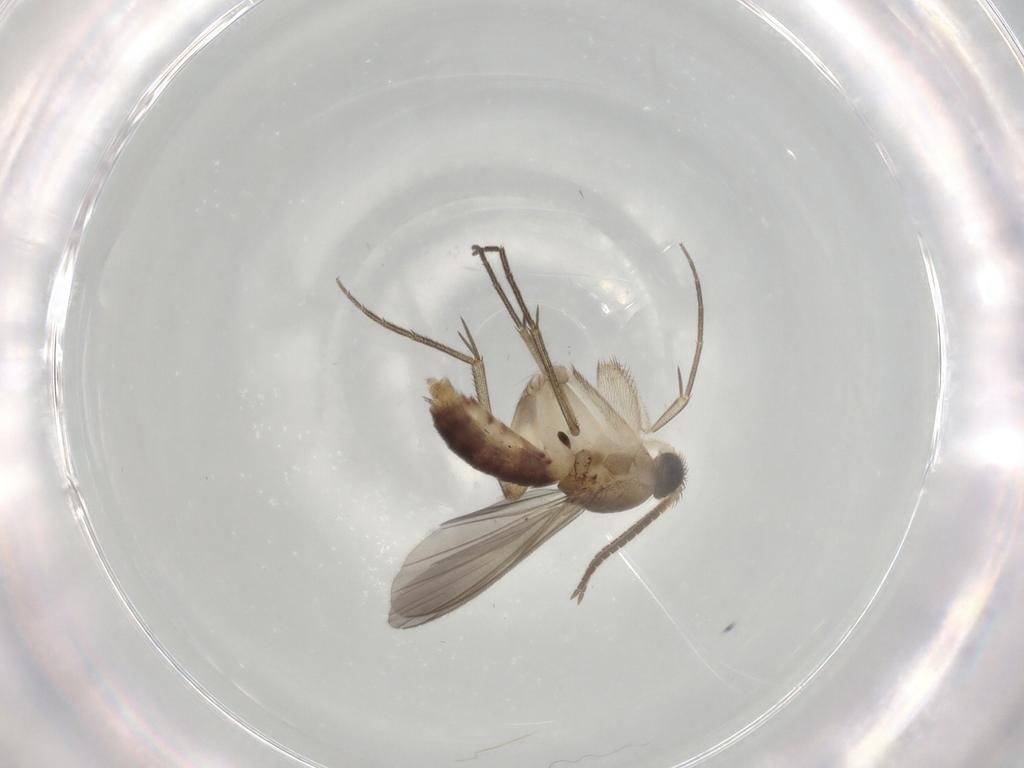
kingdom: Animalia
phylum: Arthropoda
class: Insecta
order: Diptera
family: Mycetophilidae
